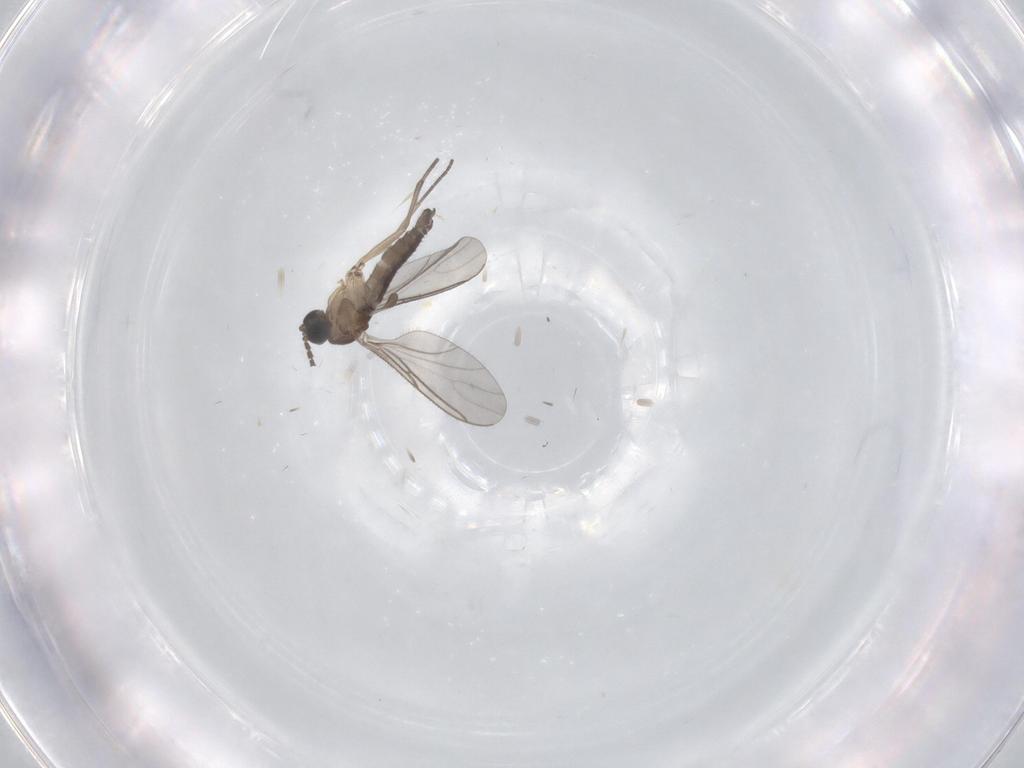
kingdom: Animalia
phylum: Arthropoda
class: Insecta
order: Diptera
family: Sciaridae
